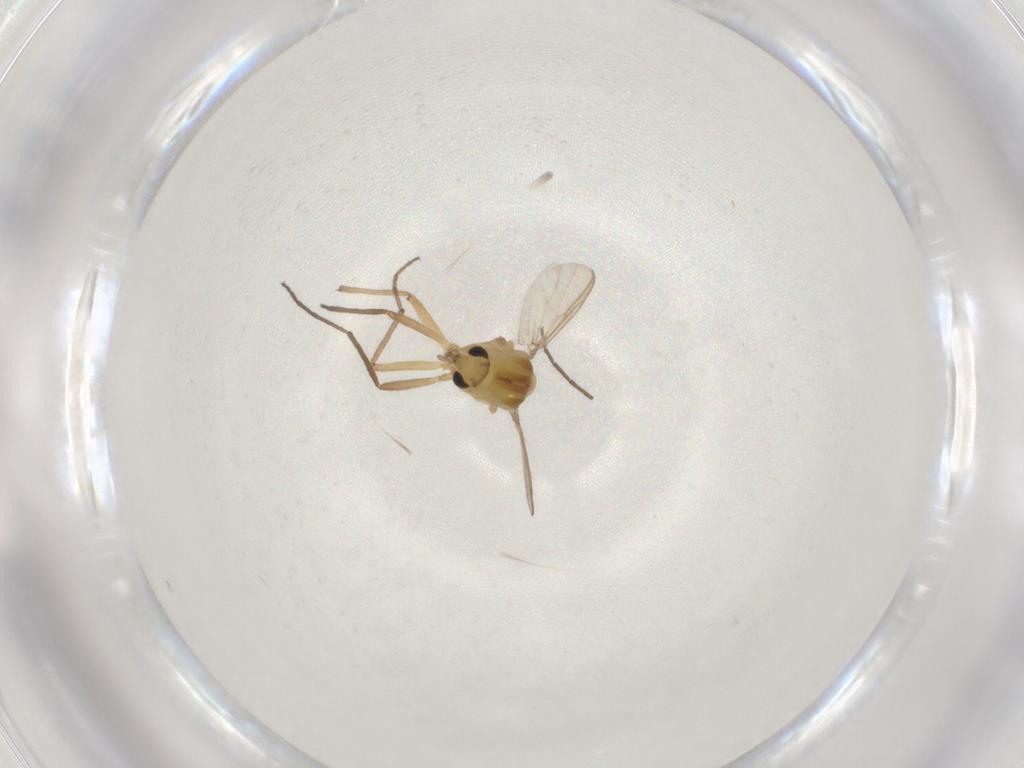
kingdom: Animalia
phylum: Arthropoda
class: Insecta
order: Diptera
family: Chironomidae
